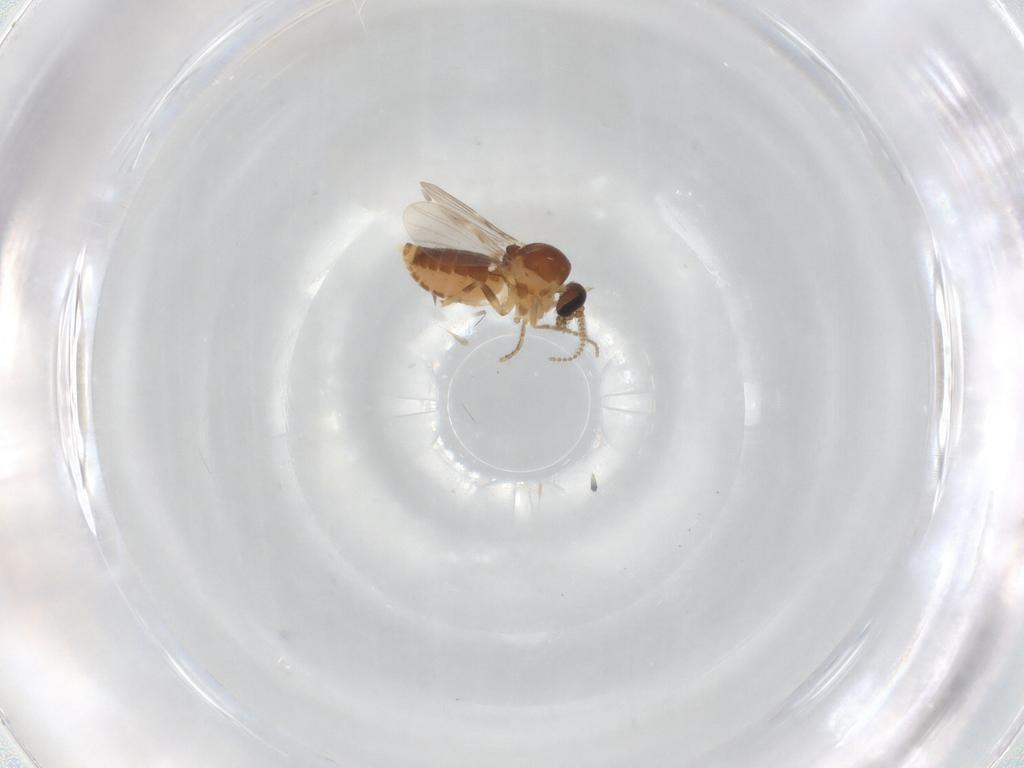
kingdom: Animalia
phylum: Arthropoda
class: Insecta
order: Diptera
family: Ceratopogonidae
